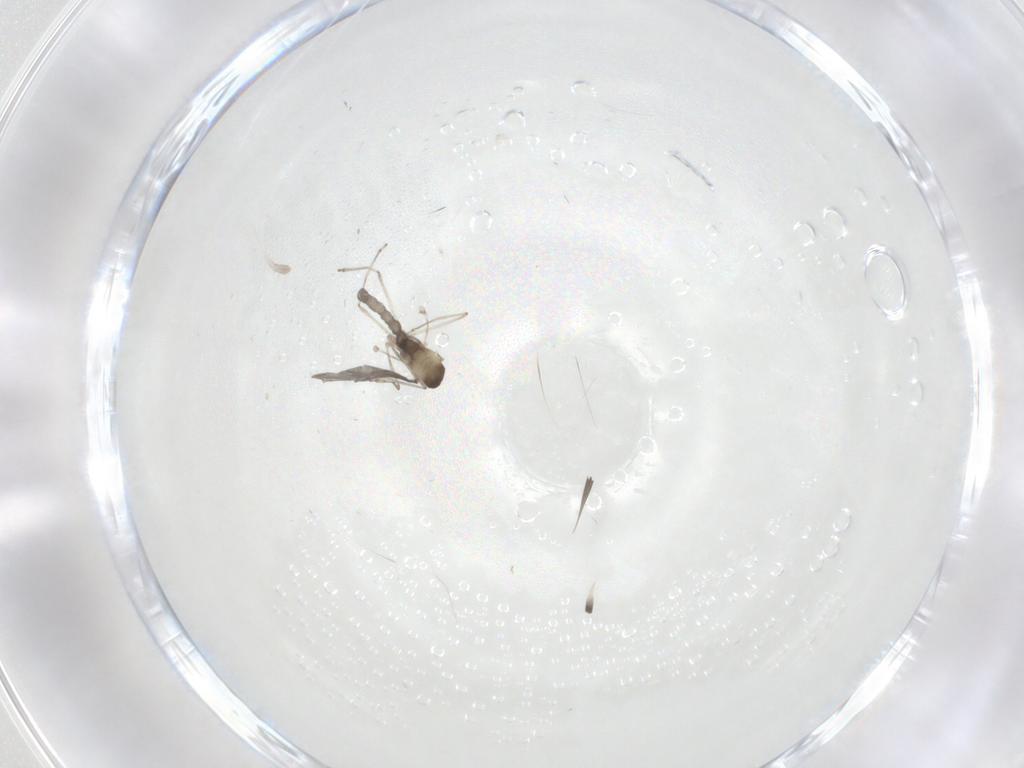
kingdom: Animalia
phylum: Arthropoda
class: Insecta
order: Diptera
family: Cecidomyiidae
